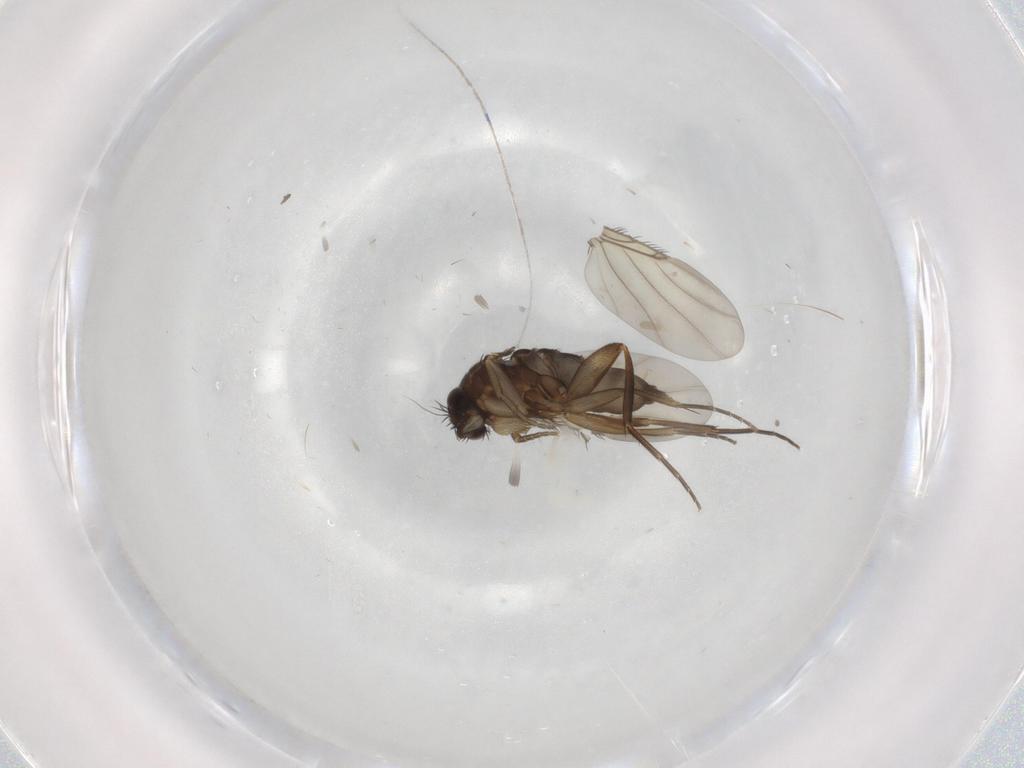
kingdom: Animalia
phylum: Arthropoda
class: Insecta
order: Diptera
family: Phoridae
